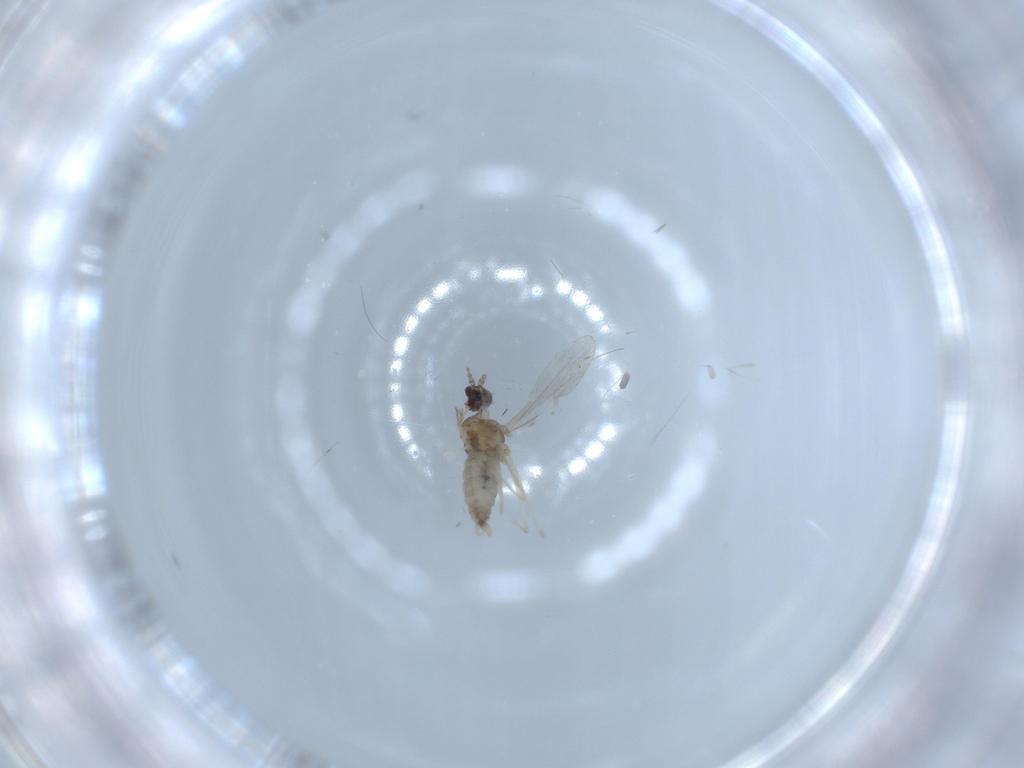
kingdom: Animalia
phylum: Arthropoda
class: Insecta
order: Diptera
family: Cecidomyiidae
